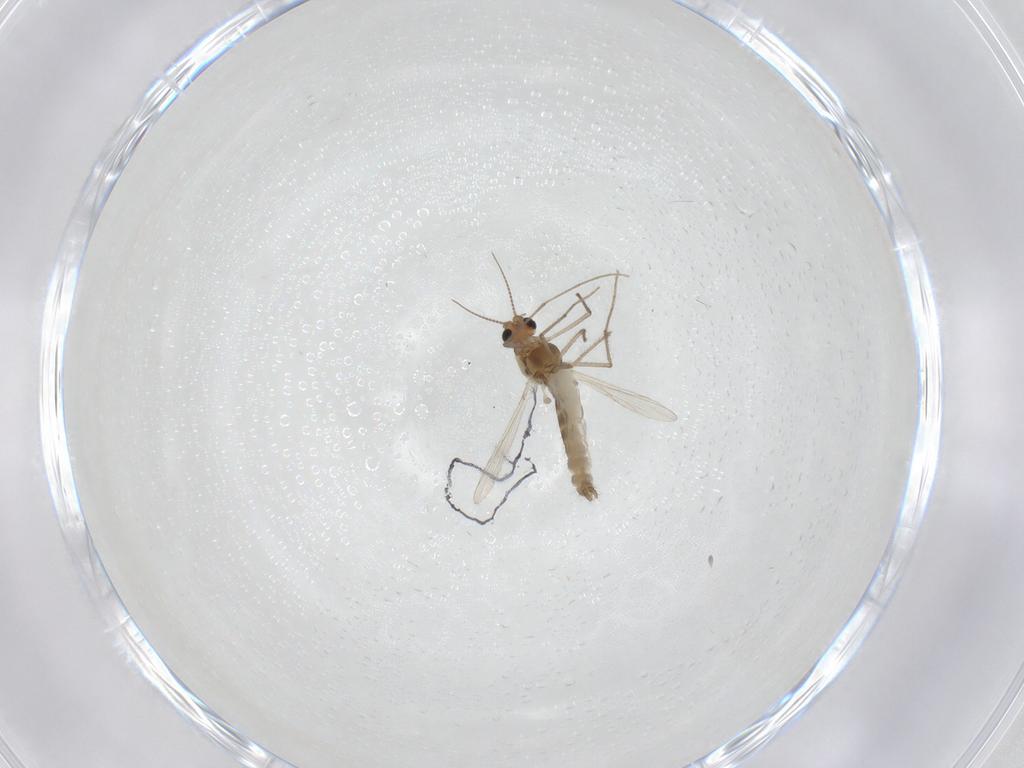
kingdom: Animalia
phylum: Arthropoda
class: Insecta
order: Diptera
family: Chironomidae
